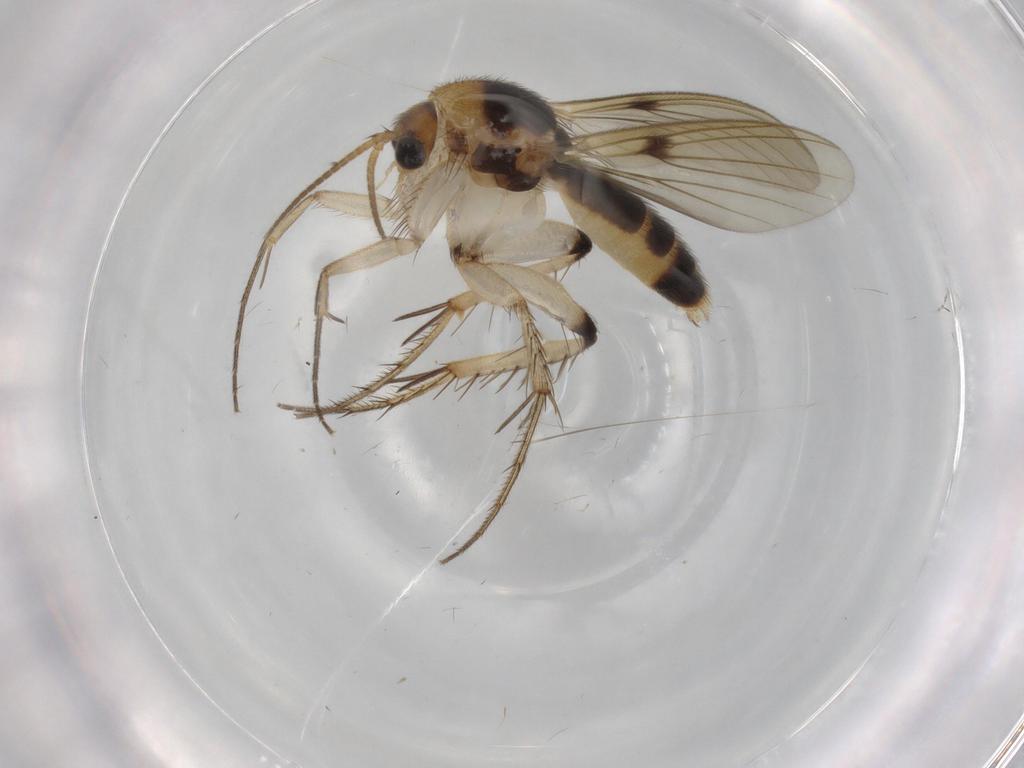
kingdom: Animalia
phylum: Arthropoda
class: Insecta
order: Diptera
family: Mycetophilidae
